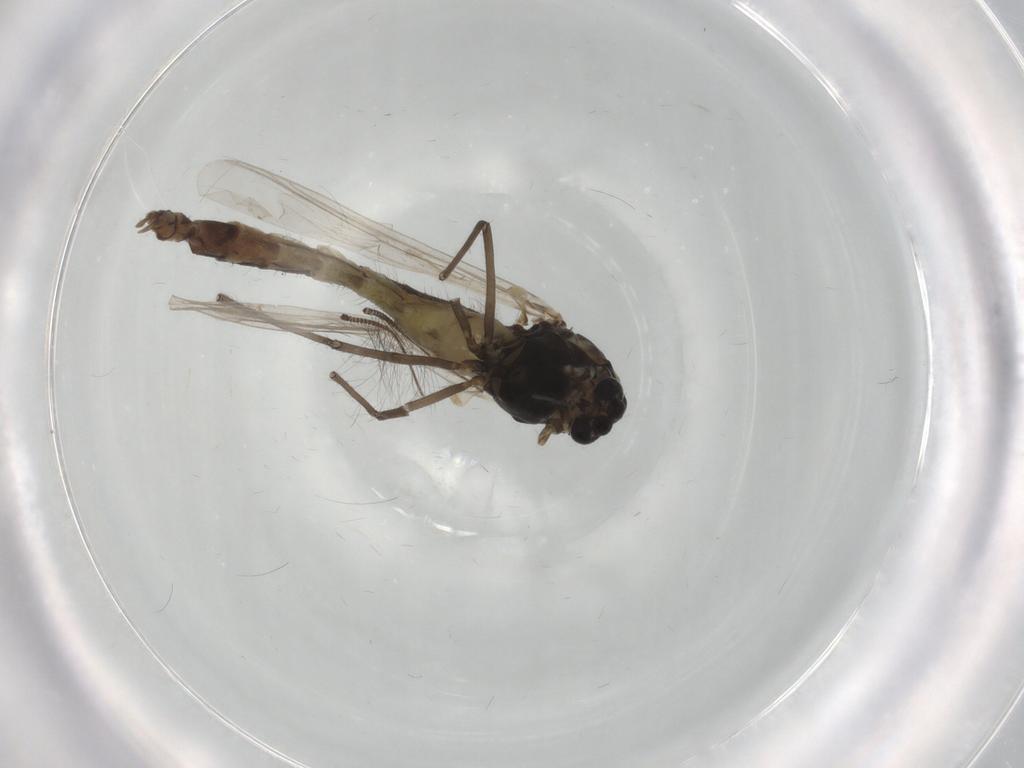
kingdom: Animalia
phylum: Arthropoda
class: Insecta
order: Diptera
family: Chironomidae
